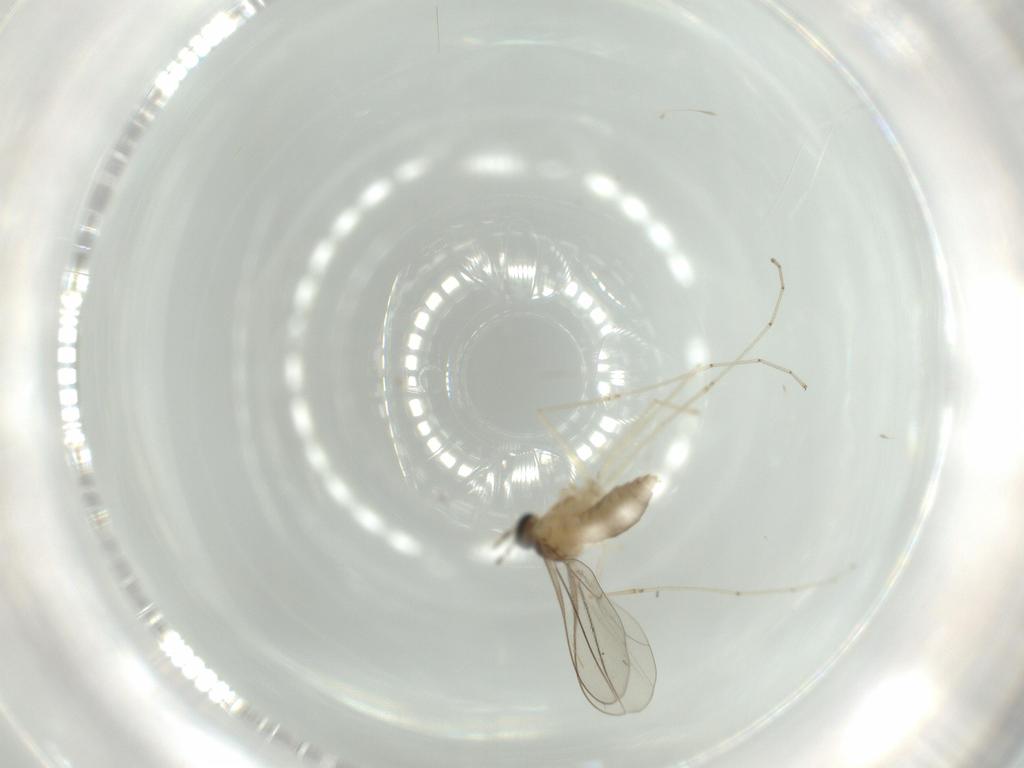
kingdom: Animalia
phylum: Arthropoda
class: Insecta
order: Diptera
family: Cecidomyiidae
